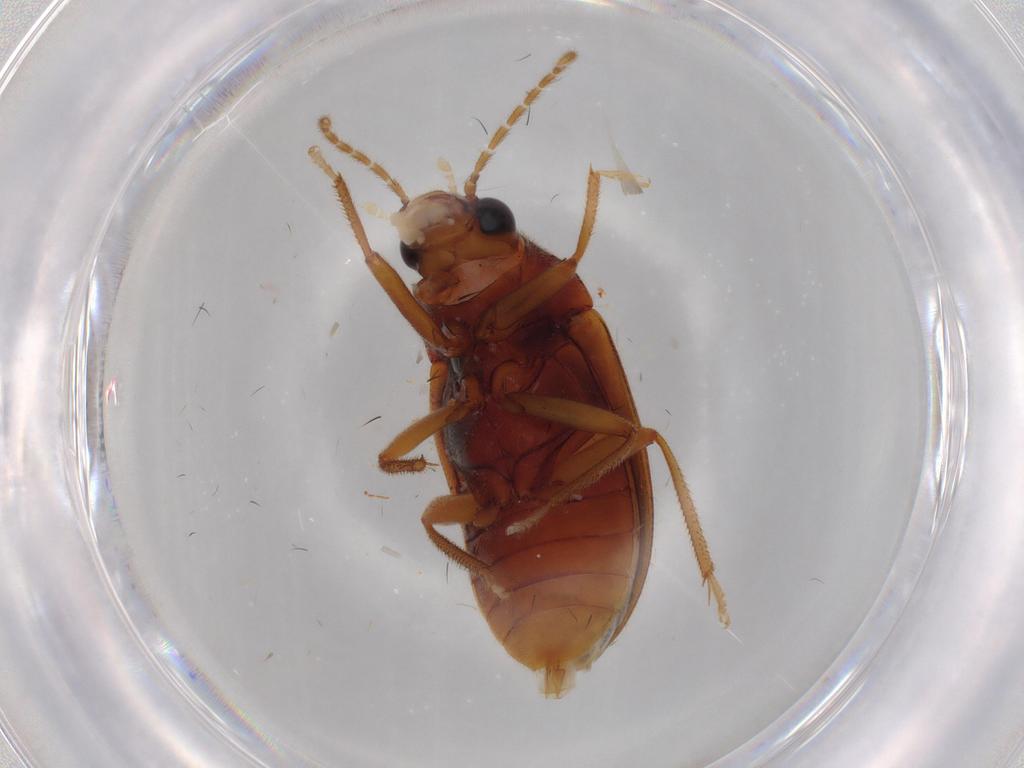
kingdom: Animalia
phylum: Arthropoda
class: Insecta
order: Coleoptera
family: Ptilodactylidae
